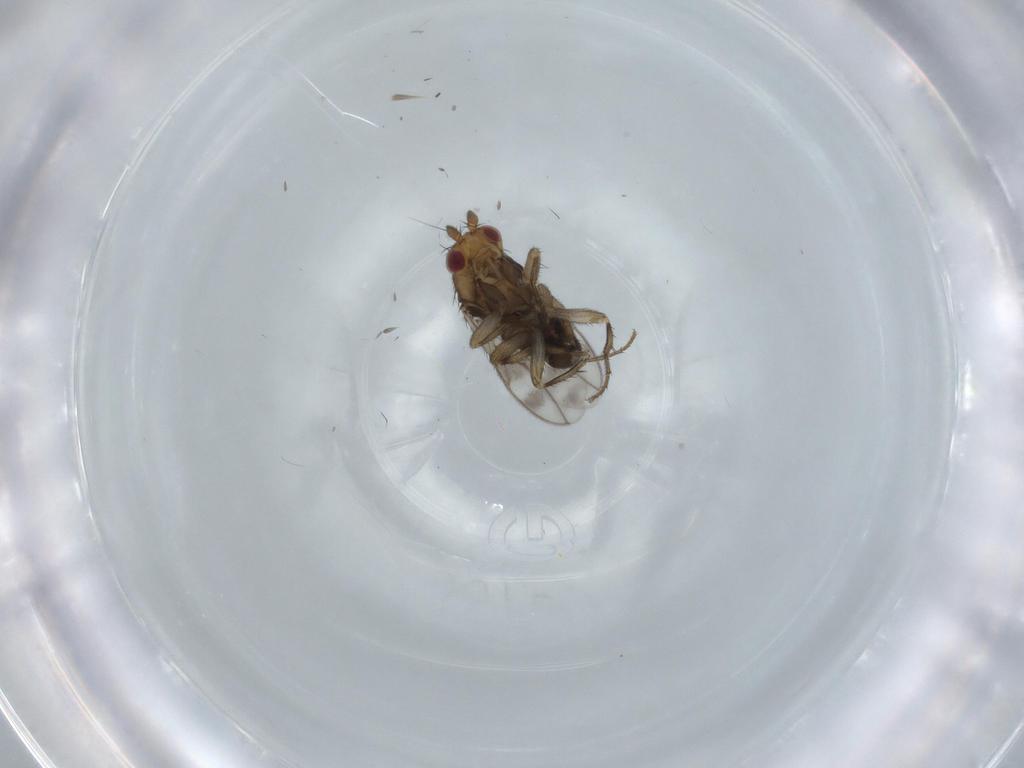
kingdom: Animalia
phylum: Arthropoda
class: Insecta
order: Diptera
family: Sphaeroceridae
